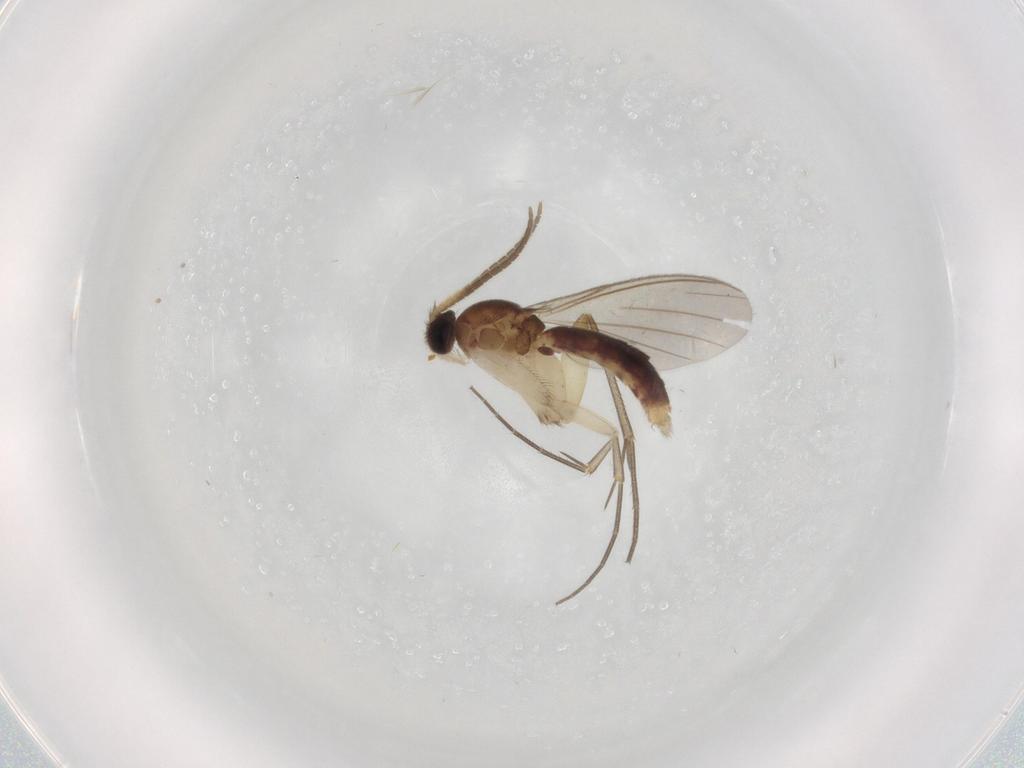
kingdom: Animalia
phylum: Arthropoda
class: Insecta
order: Diptera
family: Mycetophilidae
